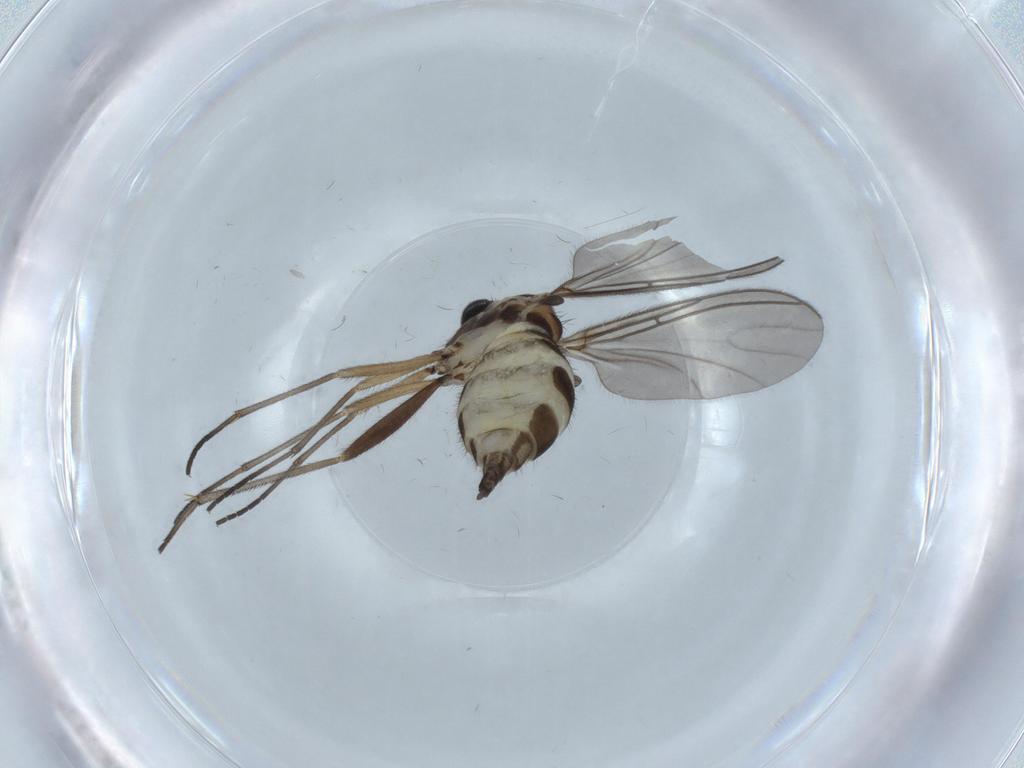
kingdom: Animalia
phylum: Arthropoda
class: Insecta
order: Diptera
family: Sciaridae
